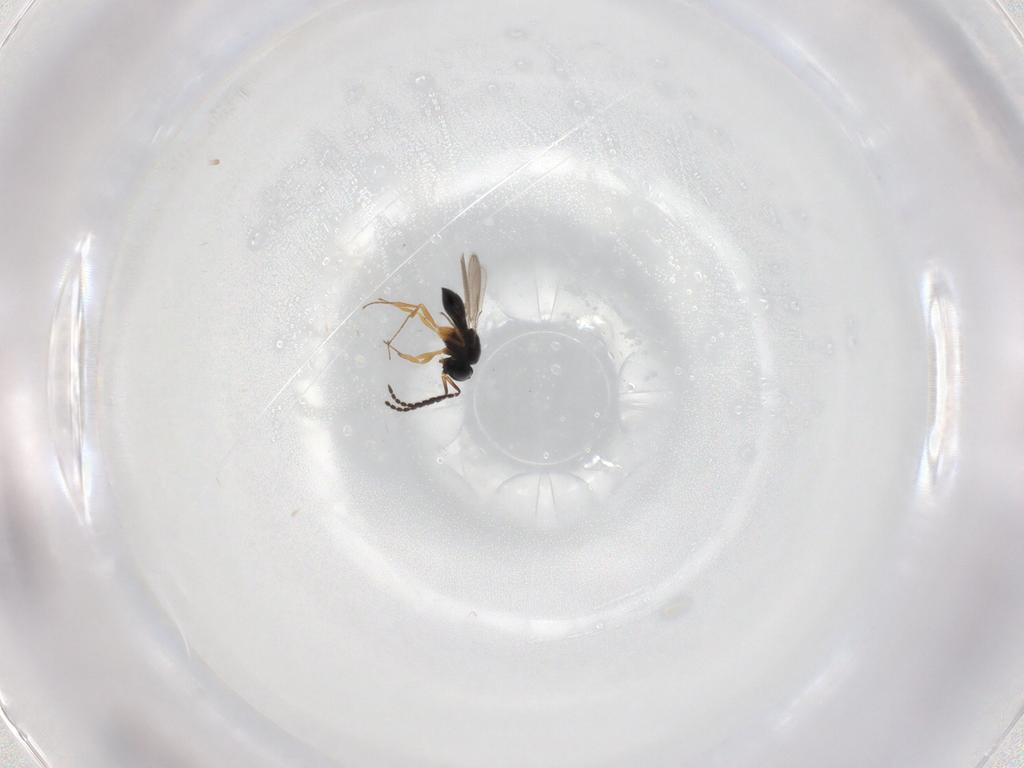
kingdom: Animalia
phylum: Arthropoda
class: Insecta
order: Hymenoptera
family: Scelionidae
